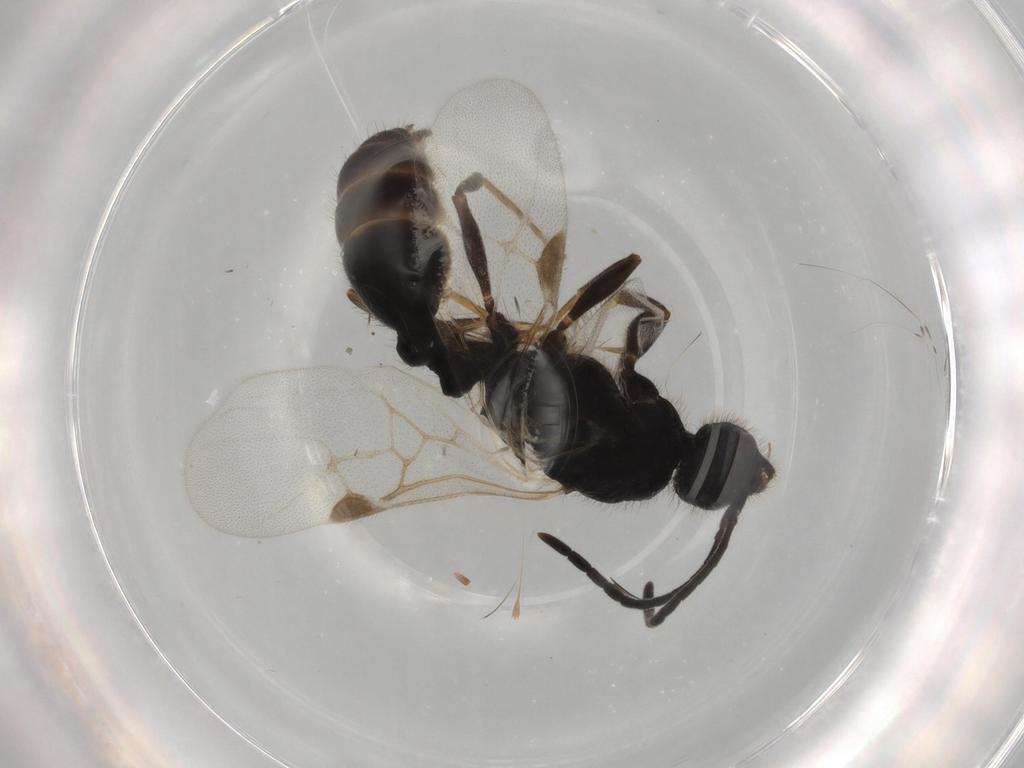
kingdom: Animalia
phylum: Arthropoda
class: Insecta
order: Hymenoptera
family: Formicidae
